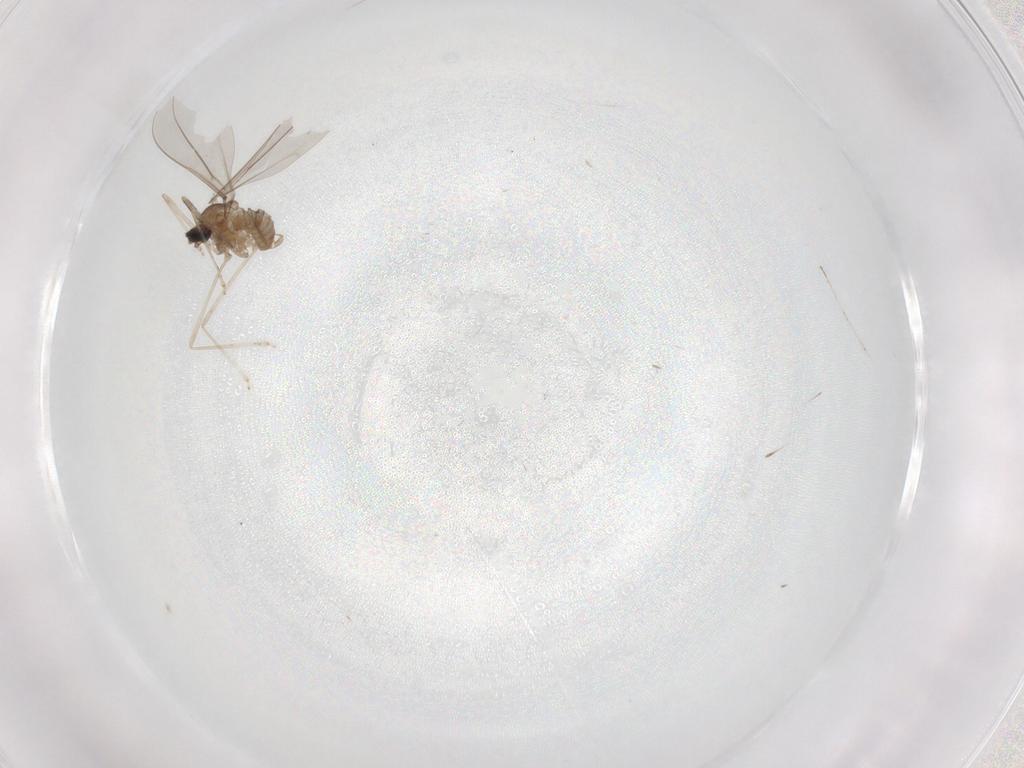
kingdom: Animalia
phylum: Arthropoda
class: Insecta
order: Diptera
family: Cecidomyiidae
